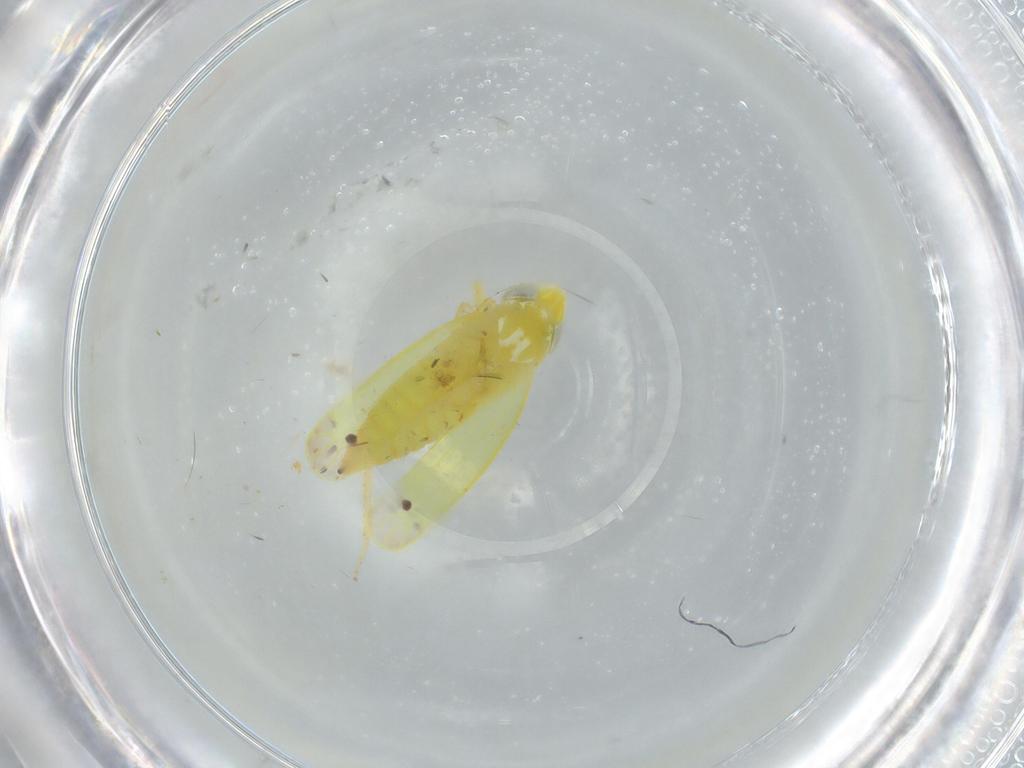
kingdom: Animalia
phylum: Arthropoda
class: Insecta
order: Hemiptera
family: Cicadellidae
